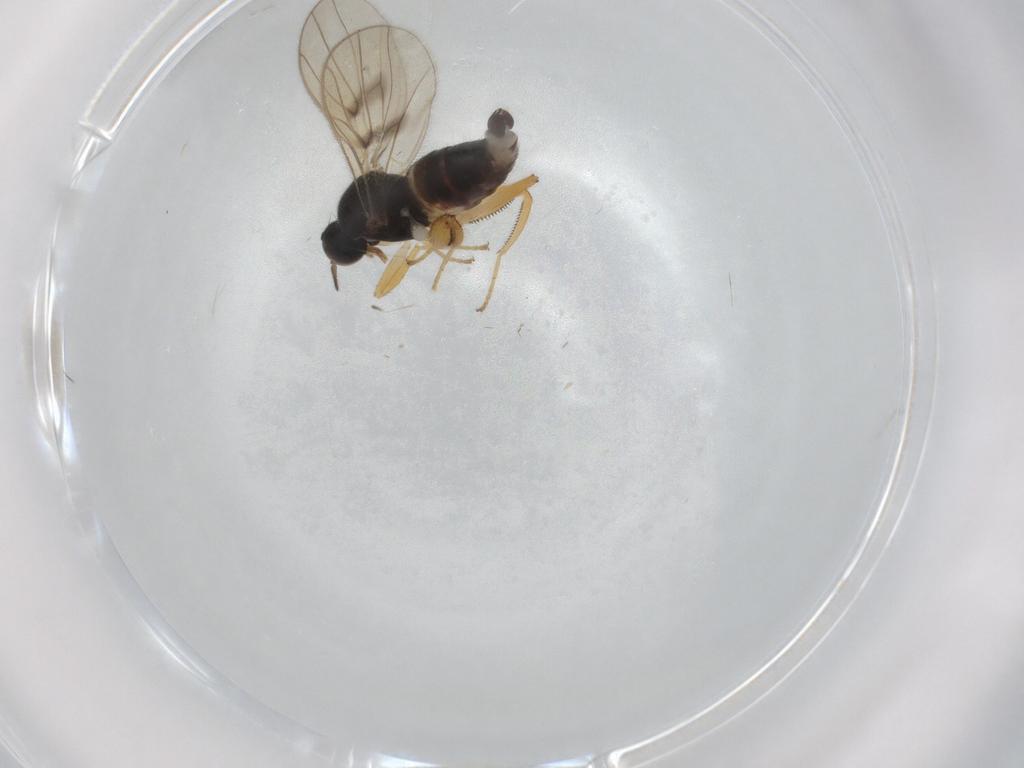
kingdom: Animalia
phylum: Arthropoda
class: Insecta
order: Diptera
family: Hybotidae
